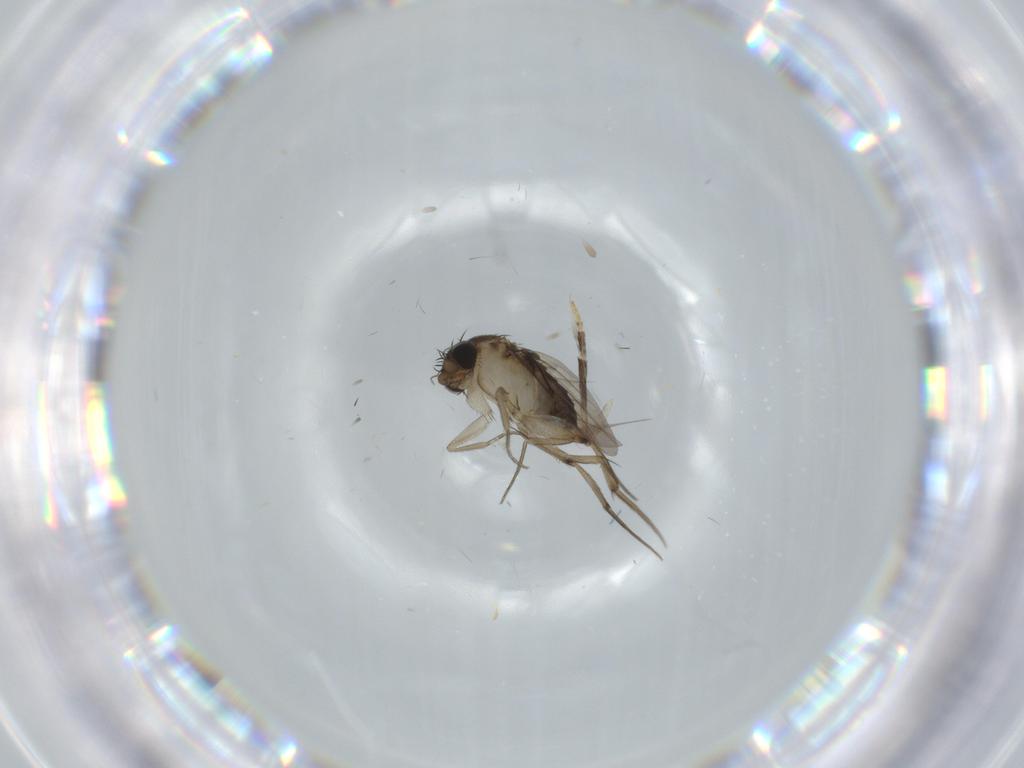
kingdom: Animalia
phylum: Arthropoda
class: Insecta
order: Diptera
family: Psychodidae
